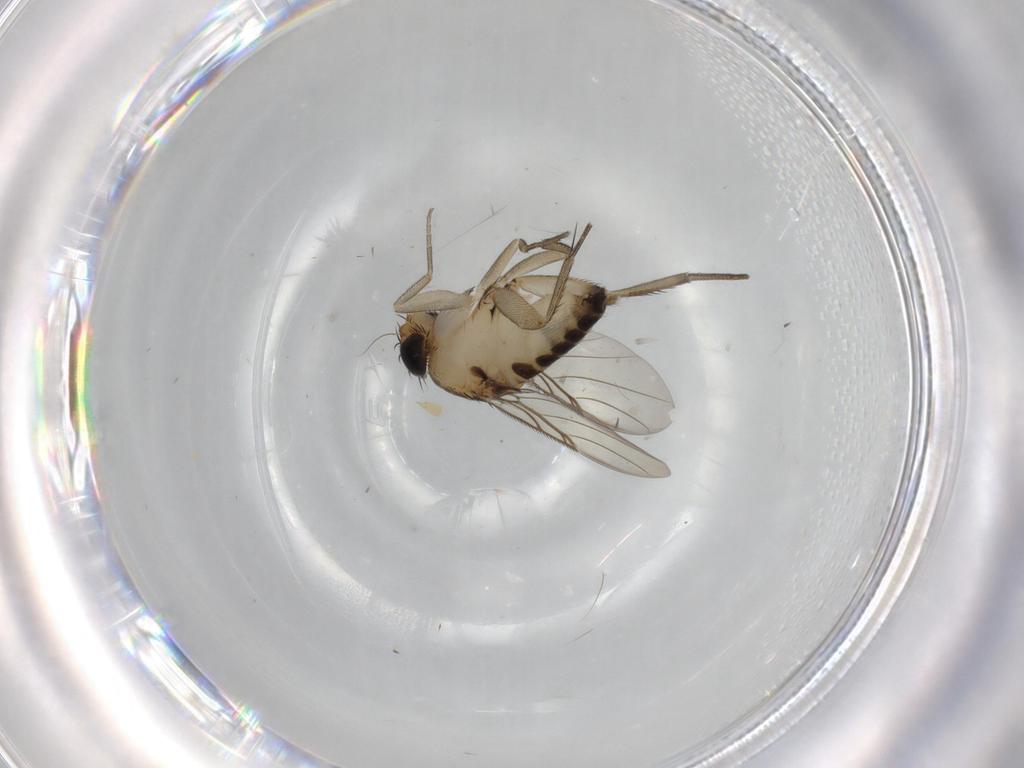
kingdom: Animalia
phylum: Arthropoda
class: Insecta
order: Diptera
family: Phoridae
